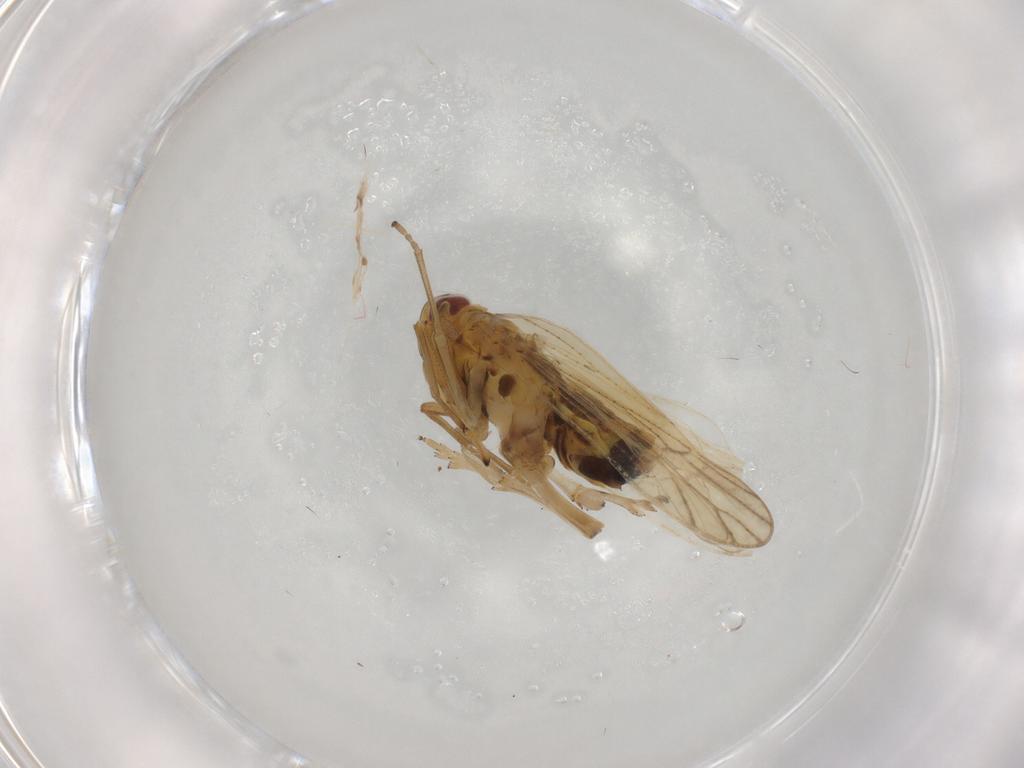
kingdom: Animalia
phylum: Arthropoda
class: Insecta
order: Hemiptera
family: Delphacidae
